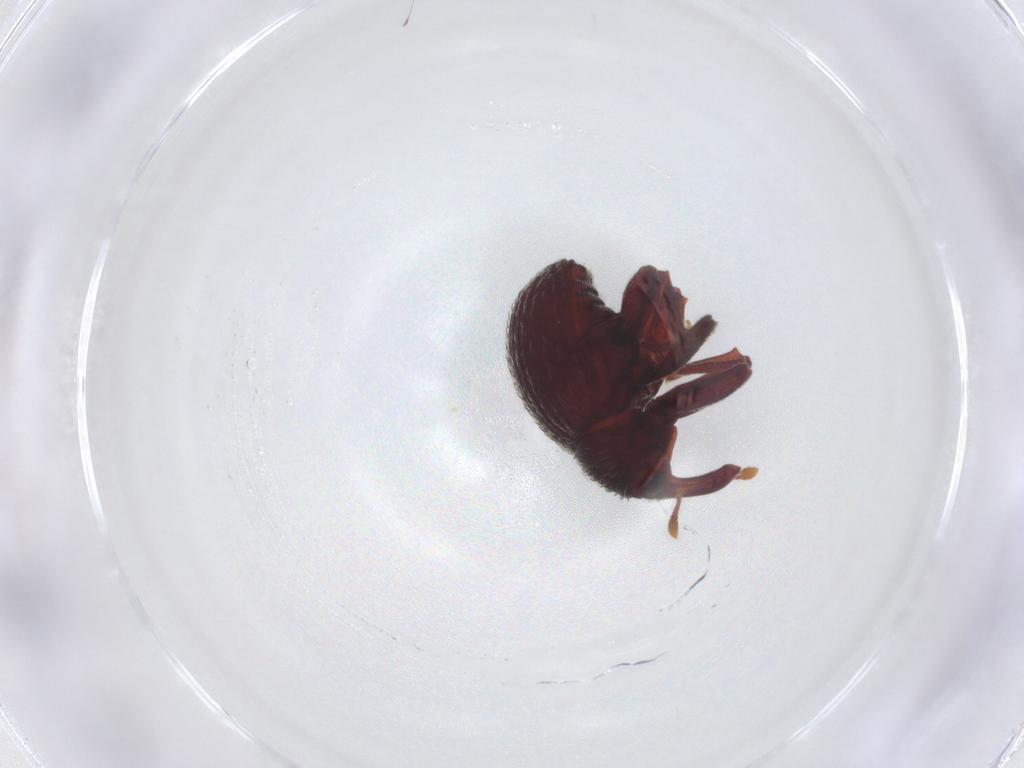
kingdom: Animalia
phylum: Arthropoda
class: Insecta
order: Coleoptera
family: Curculionidae
